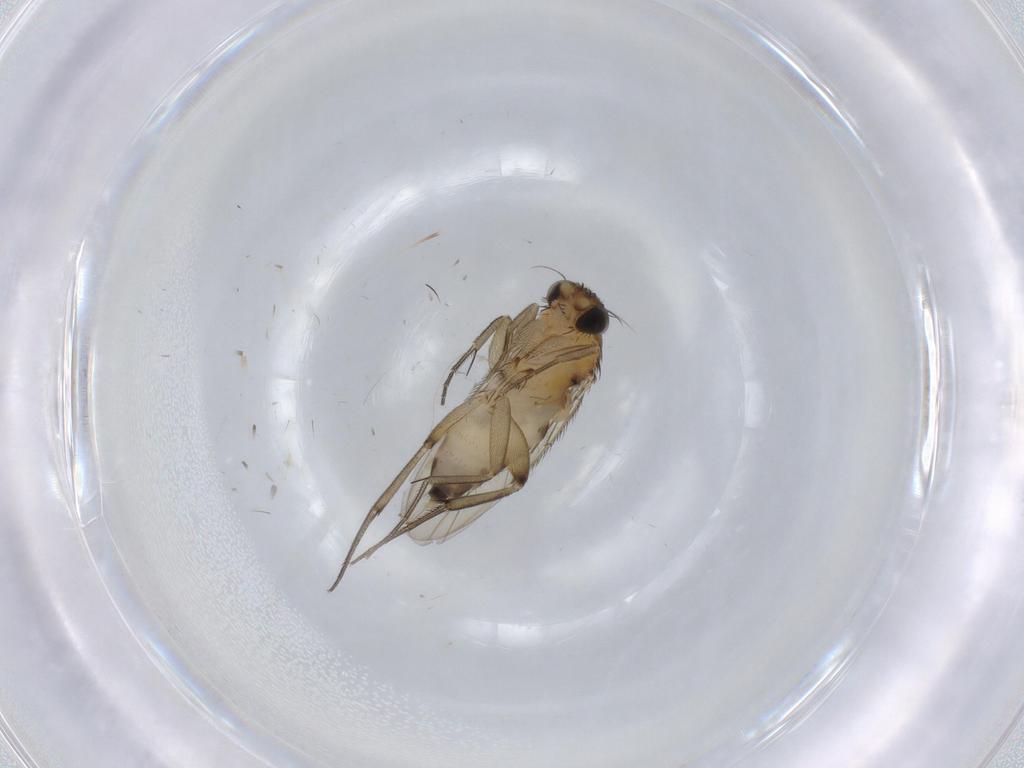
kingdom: Animalia
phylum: Arthropoda
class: Insecta
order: Diptera
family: Phoridae
